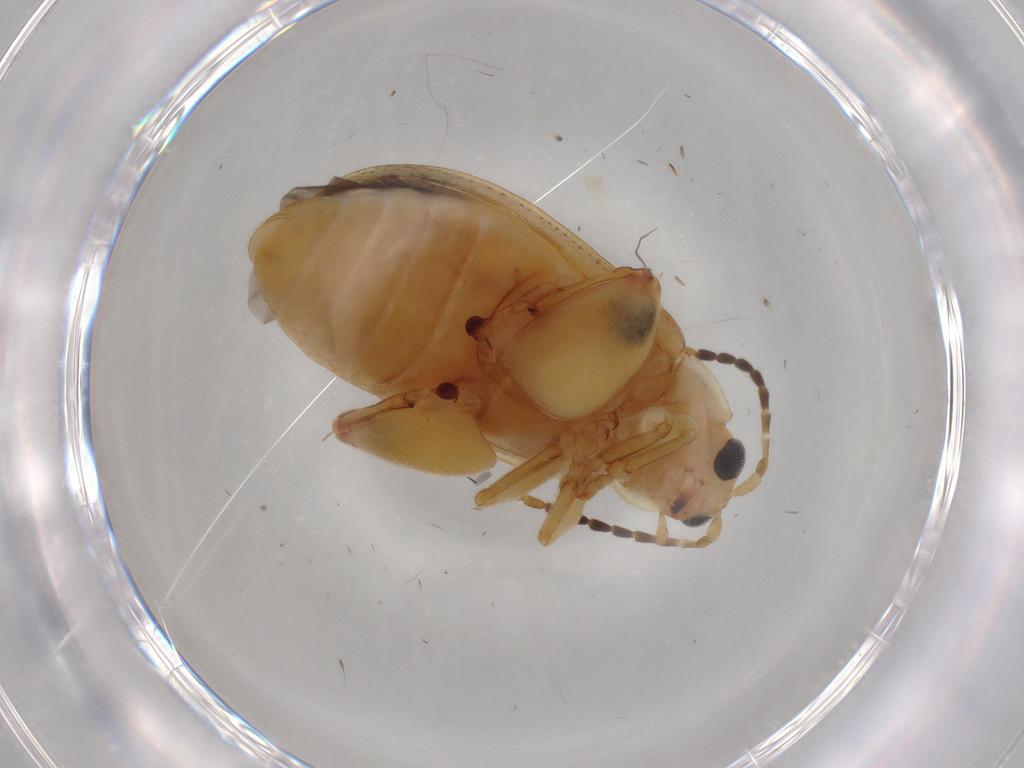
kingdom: Animalia
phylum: Arthropoda
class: Insecta
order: Coleoptera
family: Chrysomelidae
